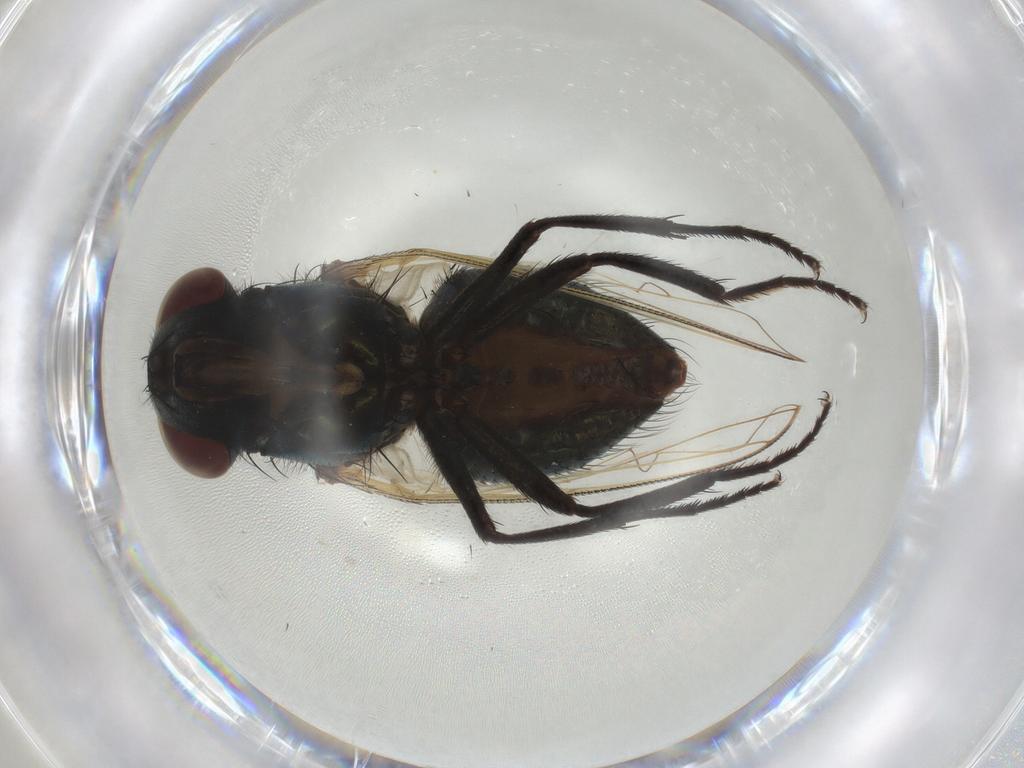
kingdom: Animalia
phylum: Arthropoda
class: Insecta
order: Diptera
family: Muscidae
